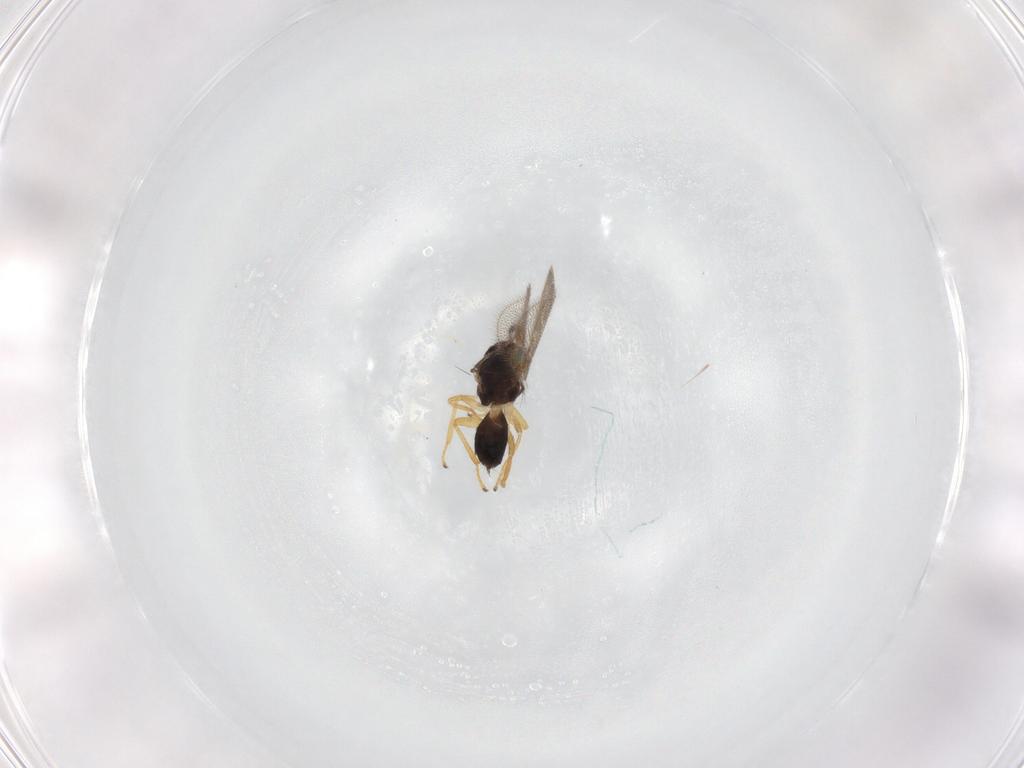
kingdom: Animalia
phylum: Arthropoda
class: Insecta
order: Hymenoptera
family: Eulophidae
